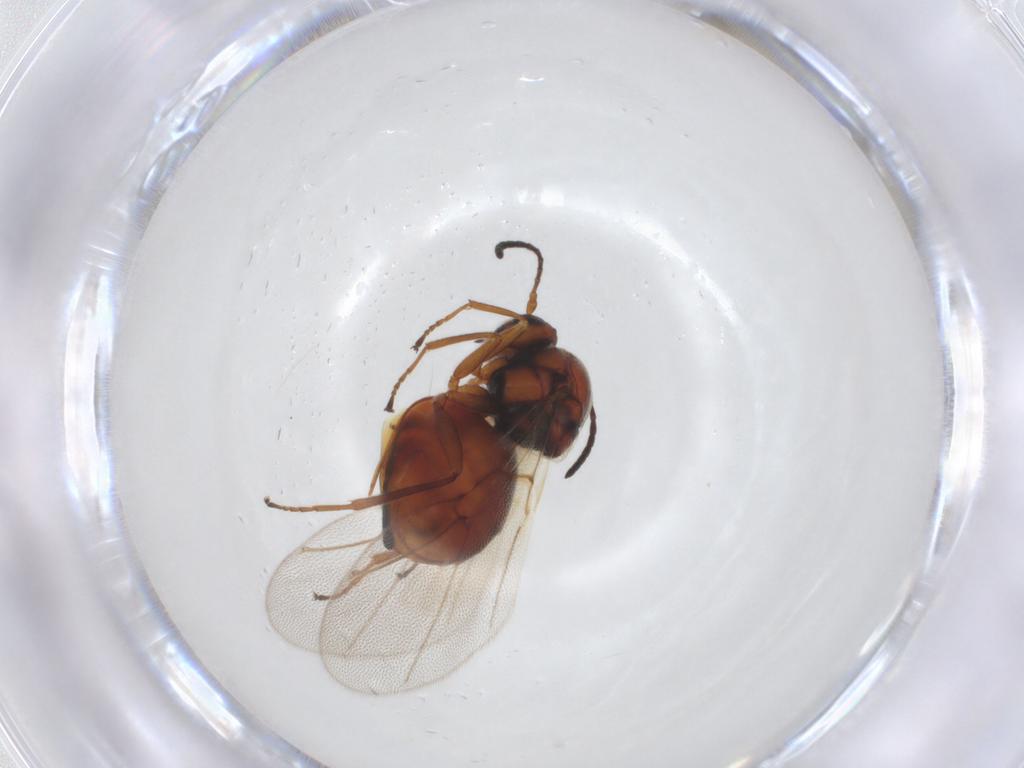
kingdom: Animalia
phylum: Arthropoda
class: Insecta
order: Hymenoptera
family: Cynipidae
